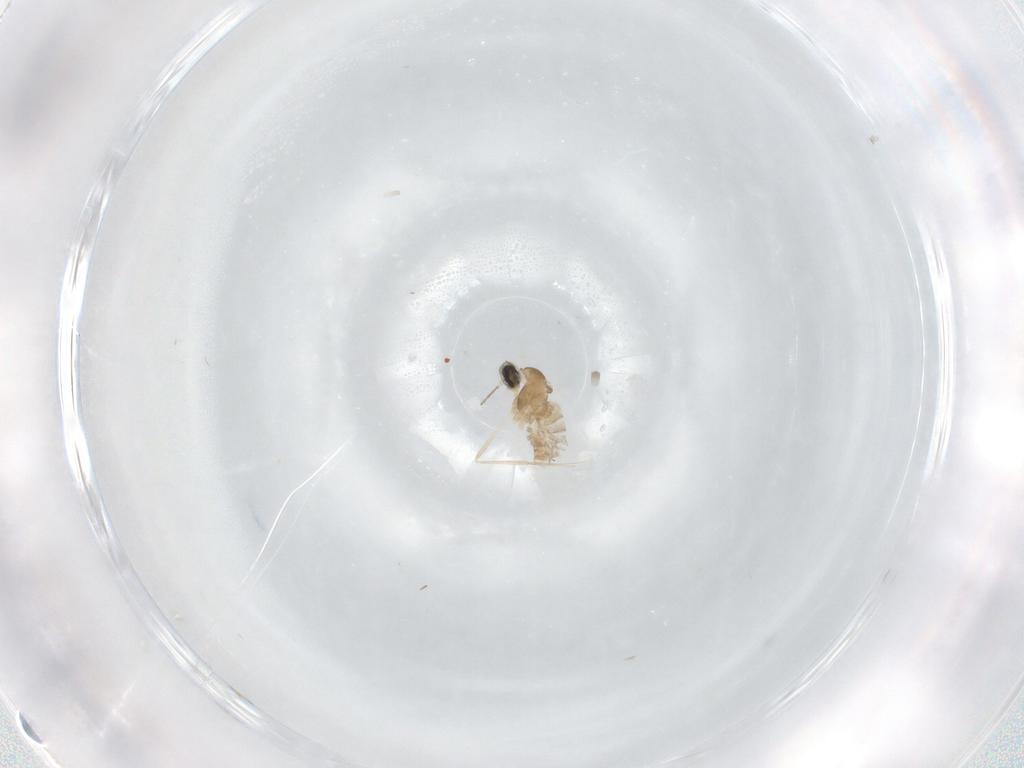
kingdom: Animalia
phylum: Arthropoda
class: Insecta
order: Diptera
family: Cecidomyiidae
